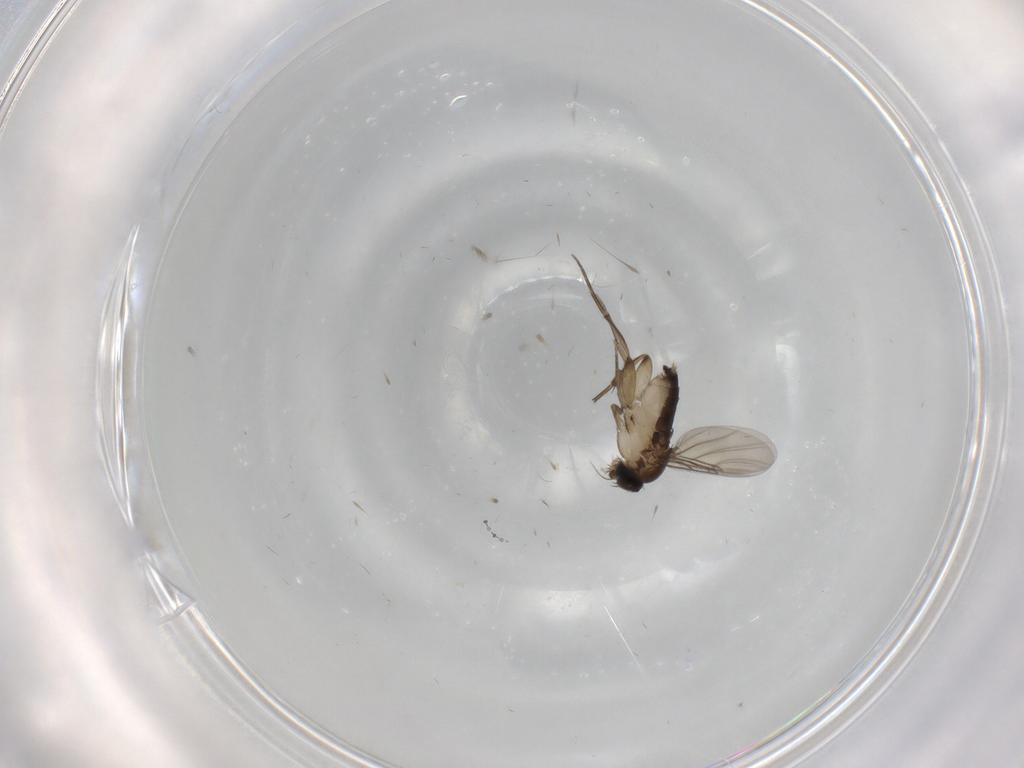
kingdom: Animalia
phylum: Arthropoda
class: Insecta
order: Diptera
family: Phoridae
